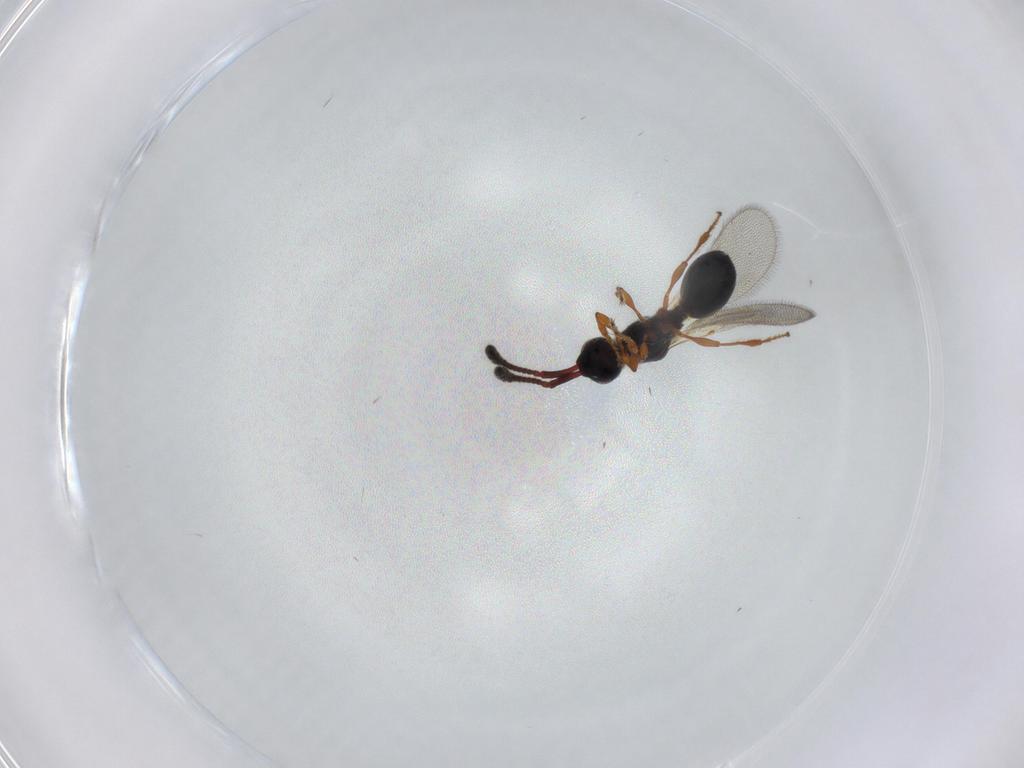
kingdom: Animalia
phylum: Arthropoda
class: Insecta
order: Hymenoptera
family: Diapriidae
